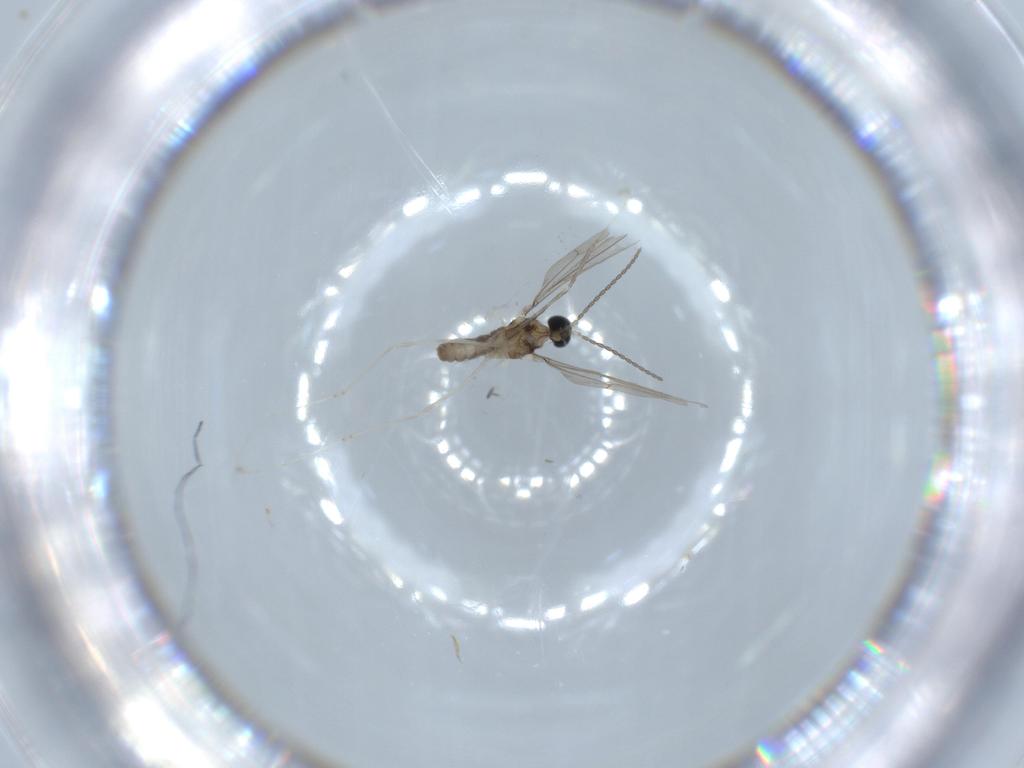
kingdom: Animalia
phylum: Arthropoda
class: Insecta
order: Diptera
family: Cecidomyiidae
